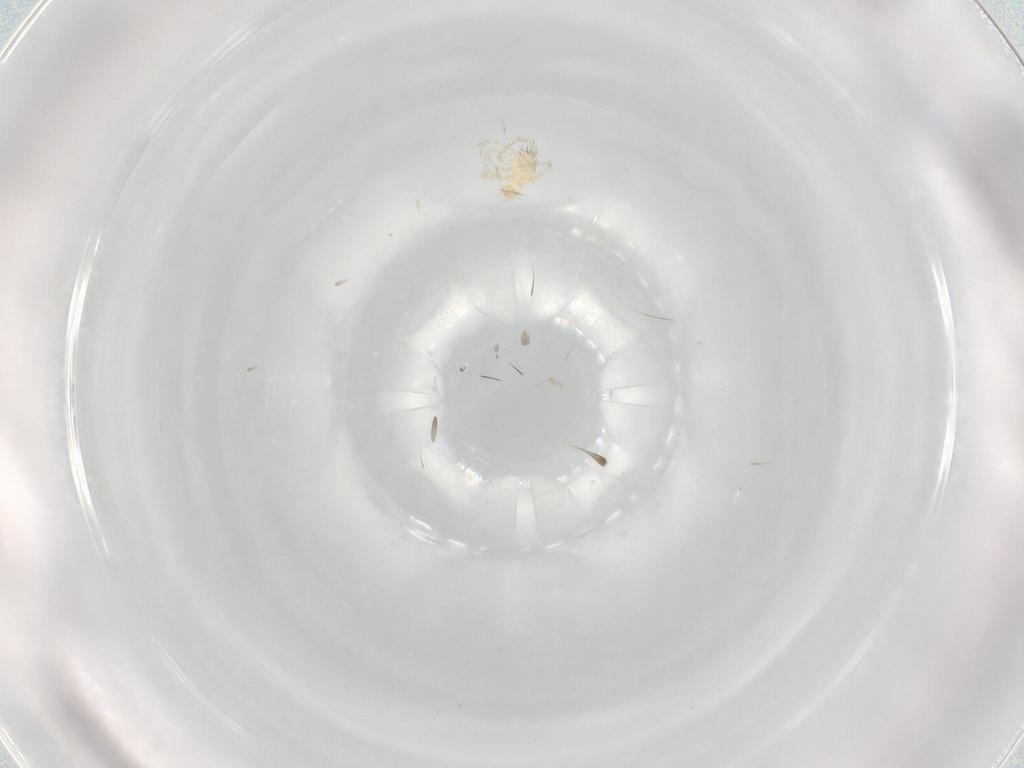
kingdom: Animalia
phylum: Arthropoda
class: Arachnida
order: Trombidiformes
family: Erythraeidae
